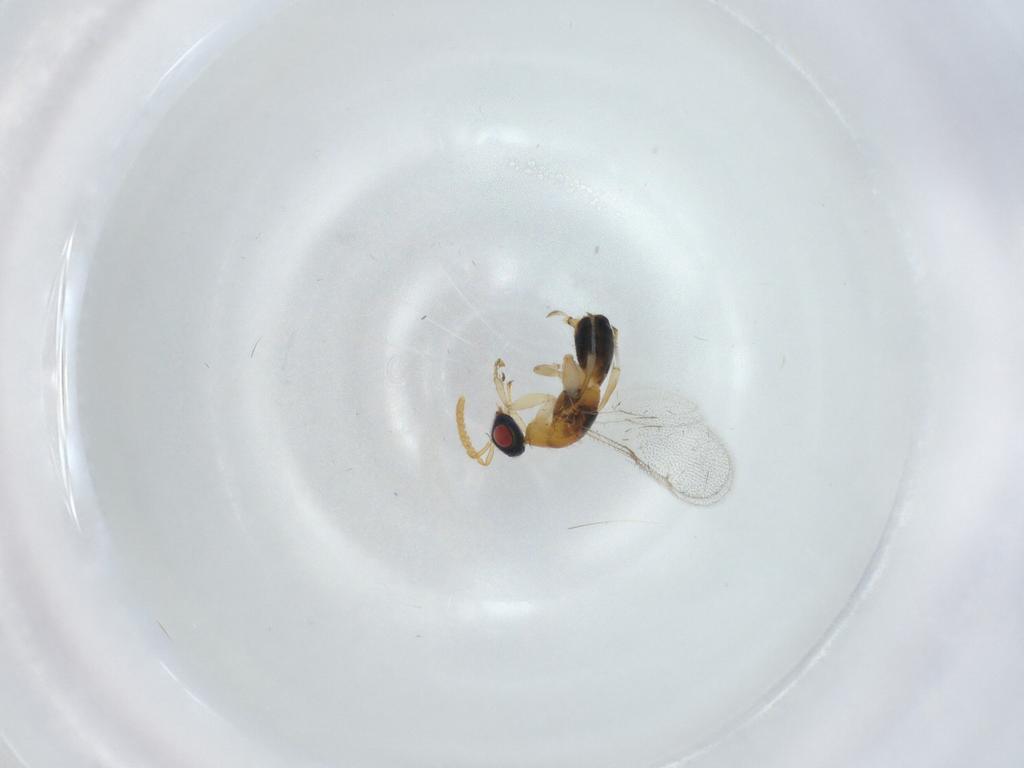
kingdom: Animalia
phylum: Arthropoda
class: Insecta
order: Hymenoptera
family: Torymidae
